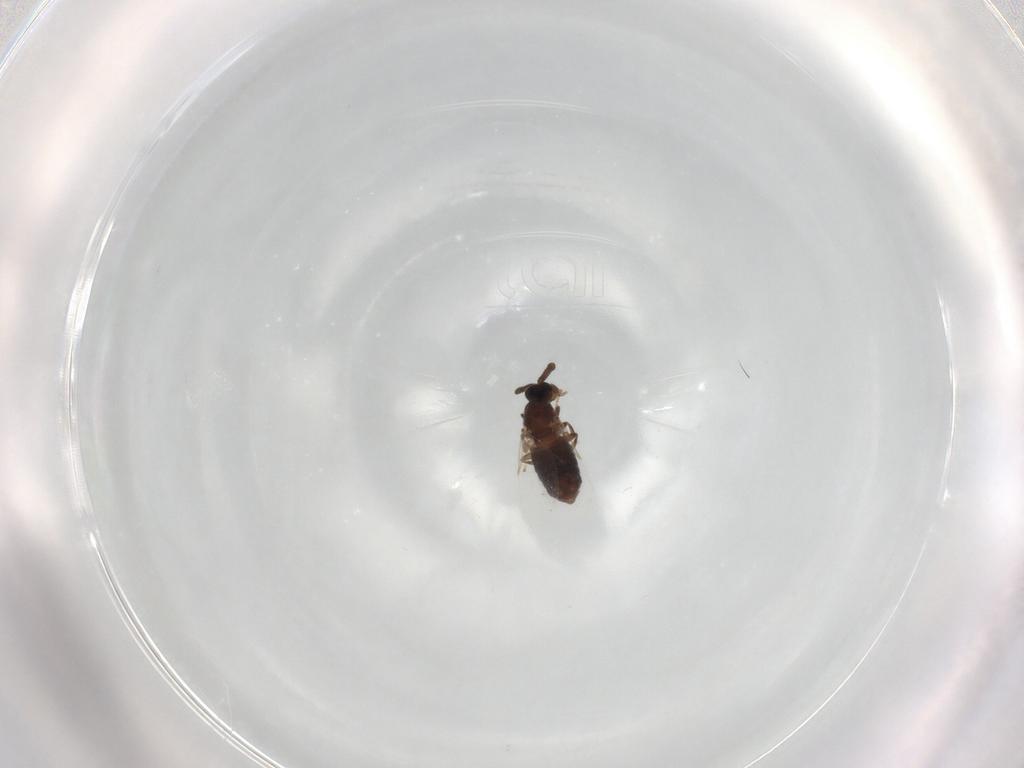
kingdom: Animalia
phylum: Arthropoda
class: Insecta
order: Diptera
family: Scatopsidae
